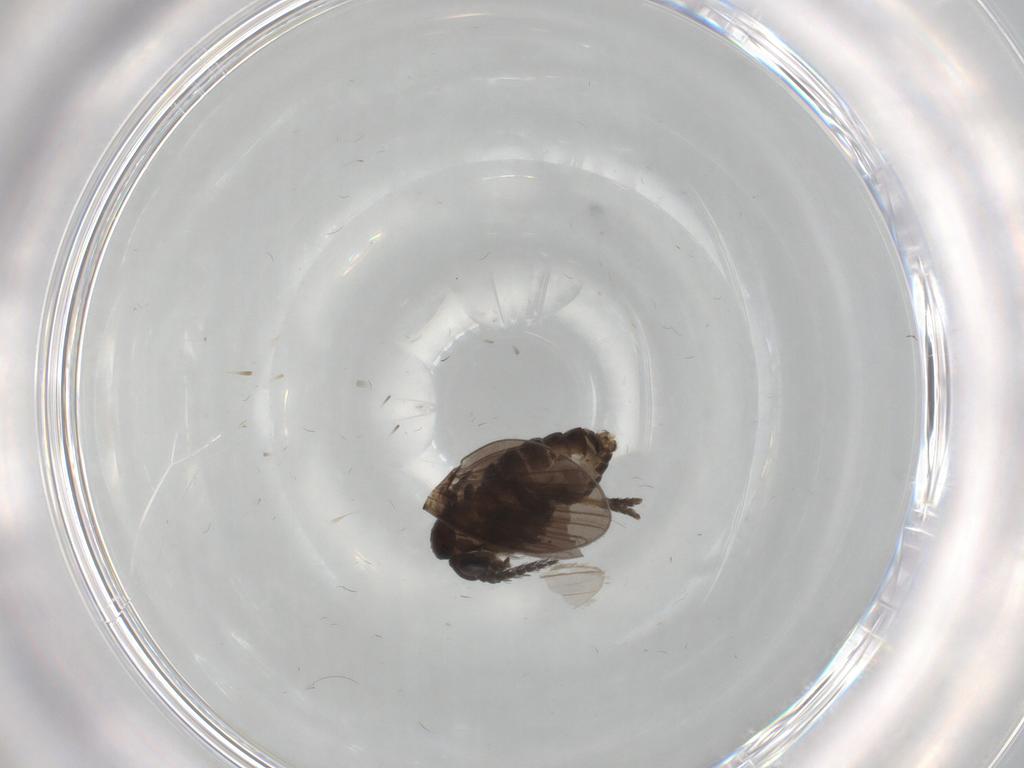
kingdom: Animalia
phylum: Arthropoda
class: Insecta
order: Diptera
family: Psychodidae
